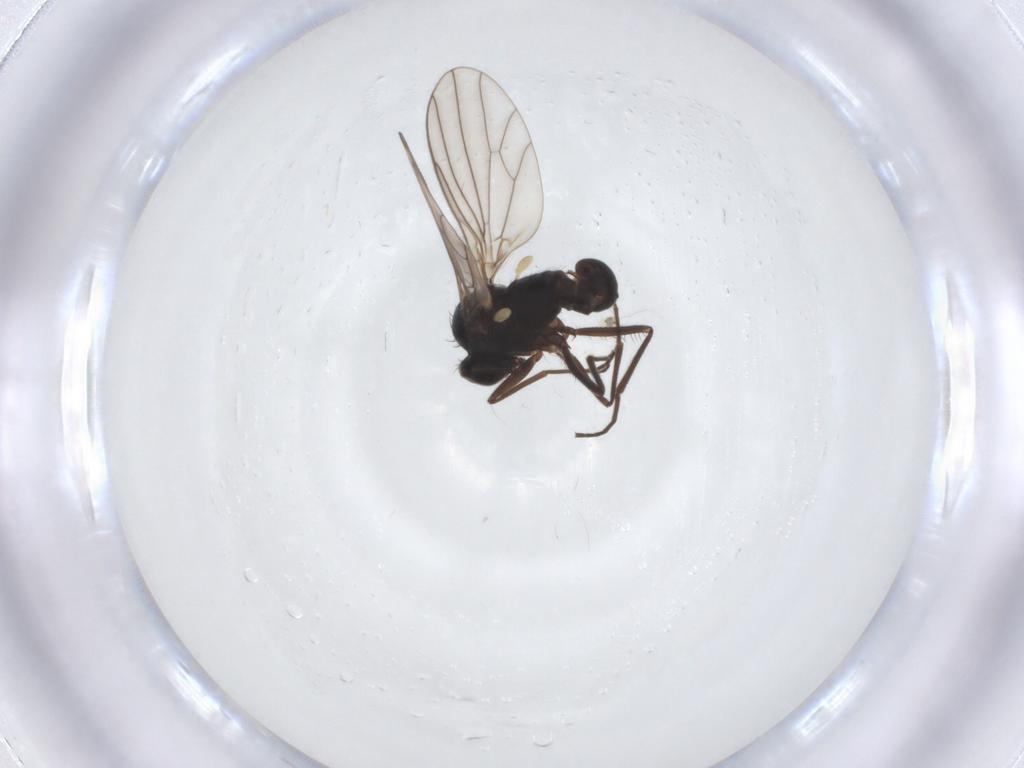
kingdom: Animalia
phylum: Arthropoda
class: Insecta
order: Diptera
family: Psychodidae
